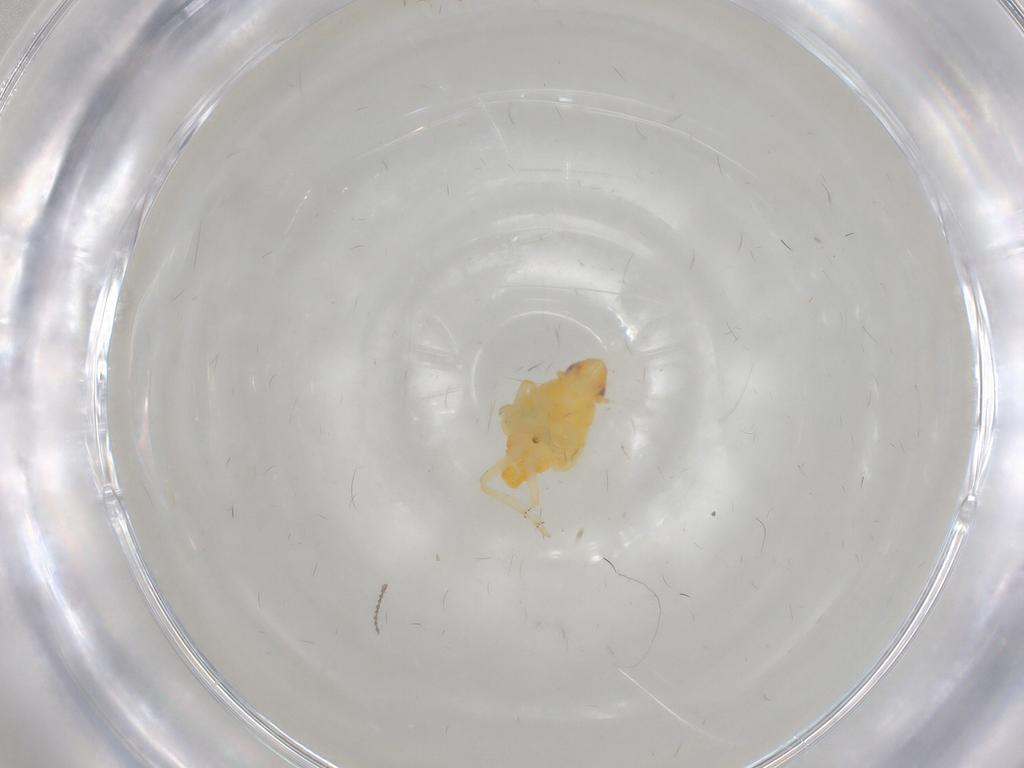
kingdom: Animalia
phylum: Arthropoda
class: Insecta
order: Hemiptera
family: Tropiduchidae
